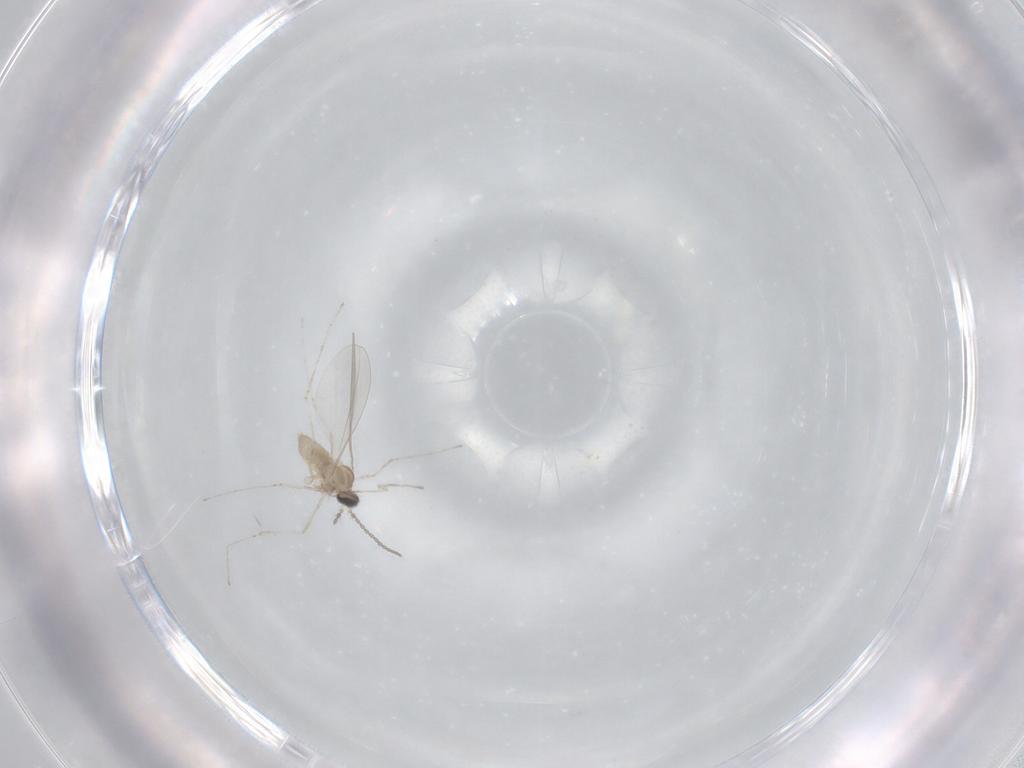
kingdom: Animalia
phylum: Arthropoda
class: Insecta
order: Diptera
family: Cecidomyiidae
